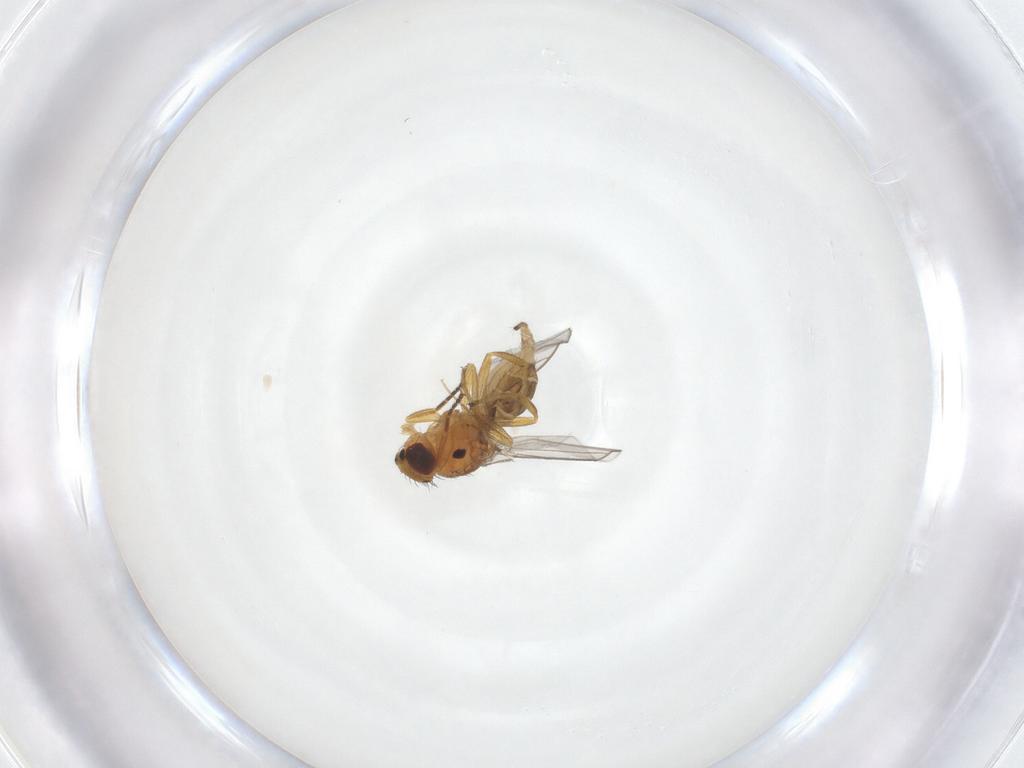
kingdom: Animalia
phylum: Arthropoda
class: Insecta
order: Diptera
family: Chloropidae
